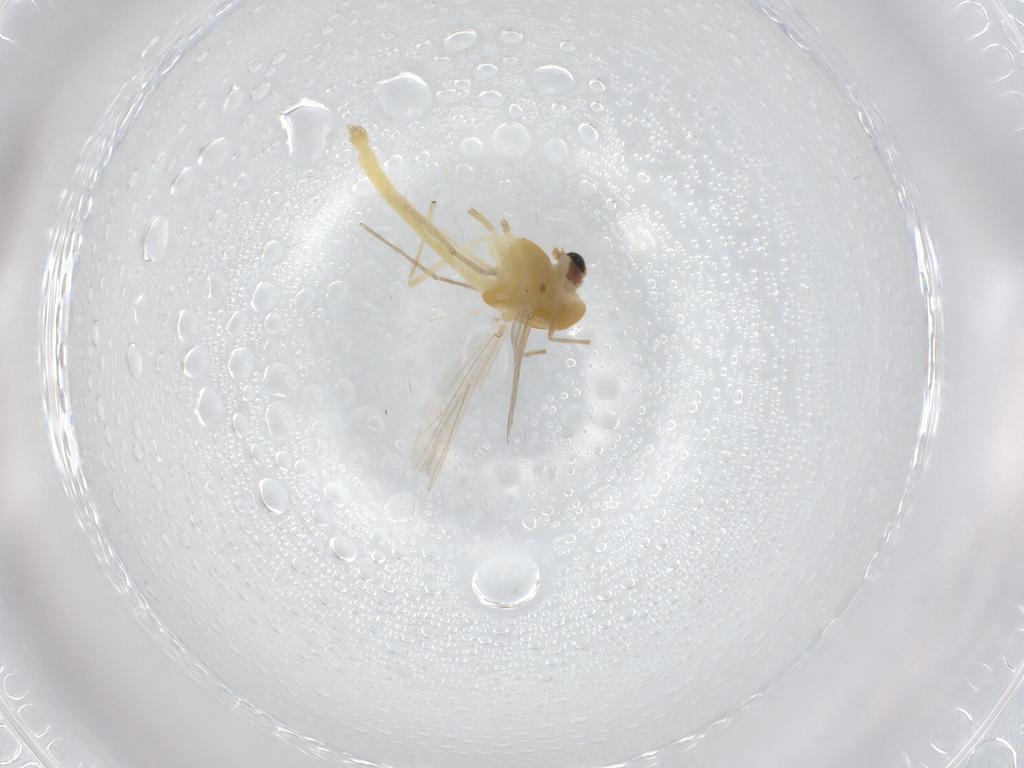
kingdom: Animalia
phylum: Arthropoda
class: Insecta
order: Diptera
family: Chironomidae
